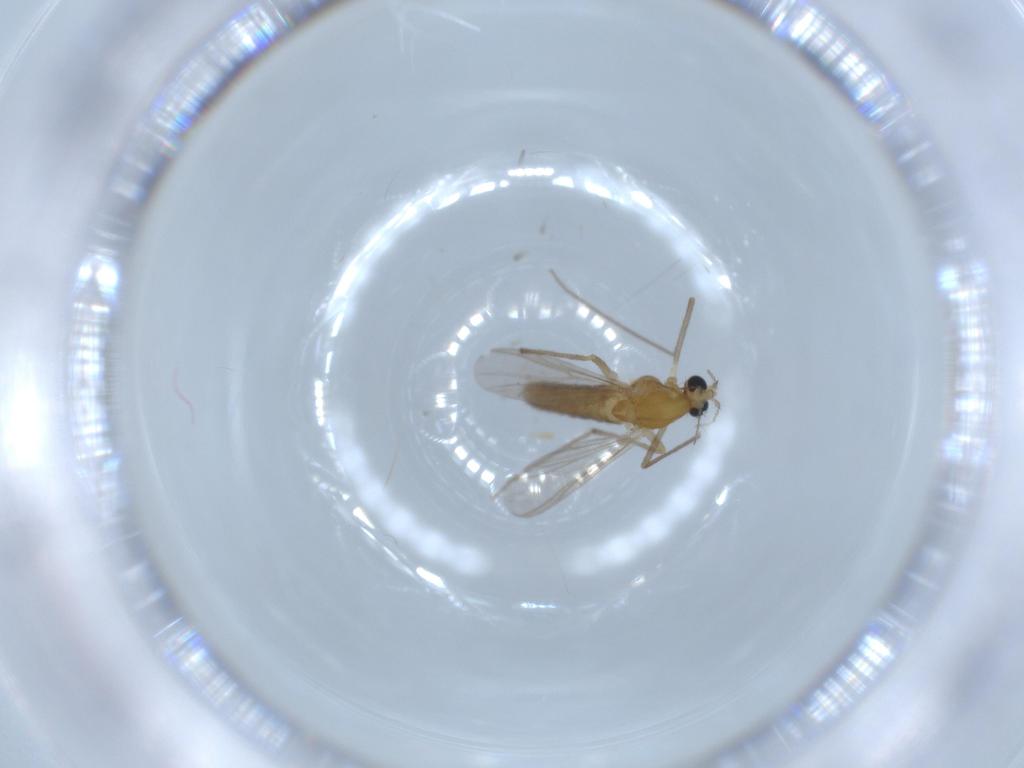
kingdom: Animalia
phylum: Arthropoda
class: Insecta
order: Diptera
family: Chironomidae
